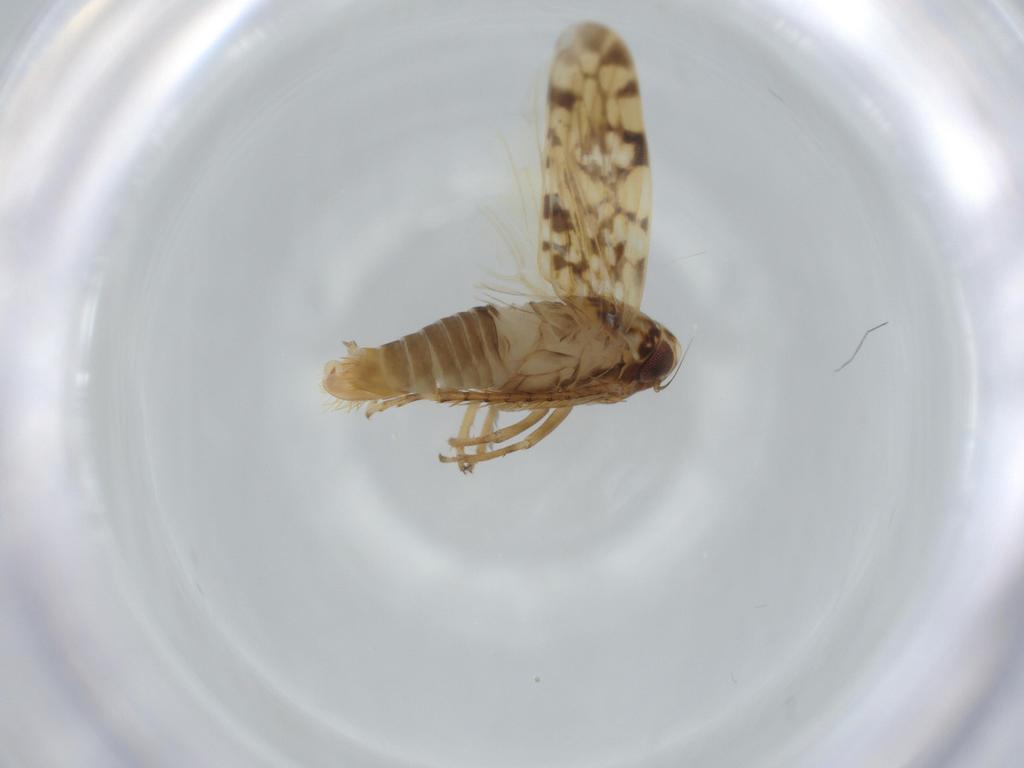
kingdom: Animalia
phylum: Arthropoda
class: Insecta
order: Hemiptera
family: Cicadellidae
